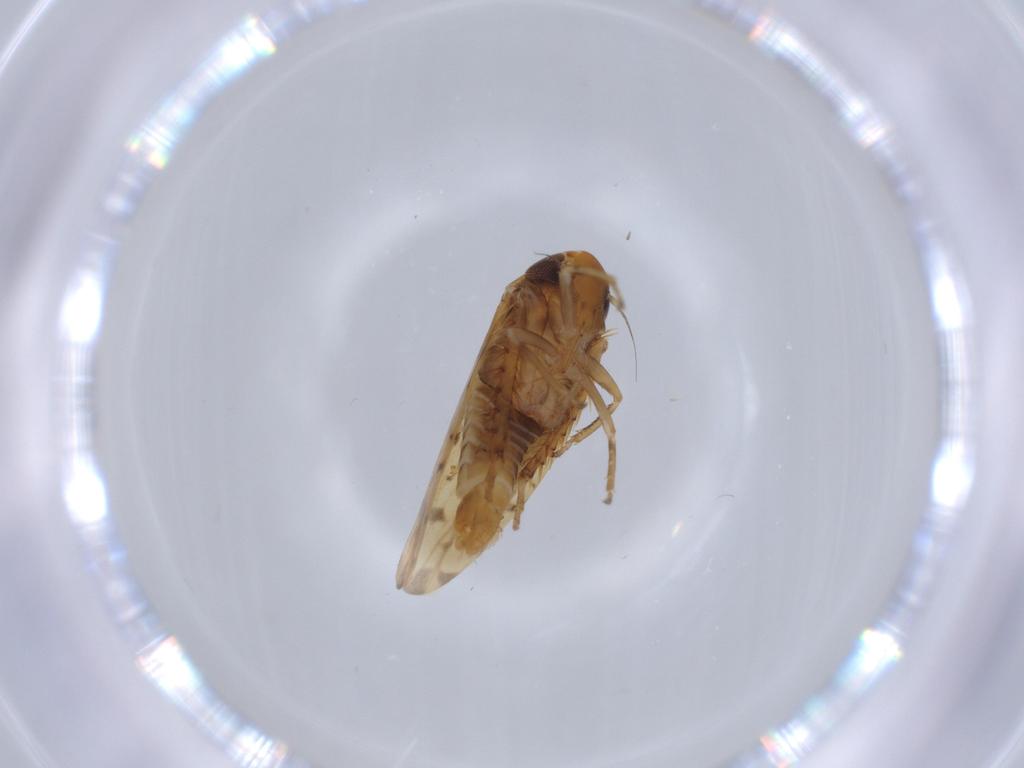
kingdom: Animalia
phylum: Arthropoda
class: Insecta
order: Hemiptera
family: Cicadellidae
